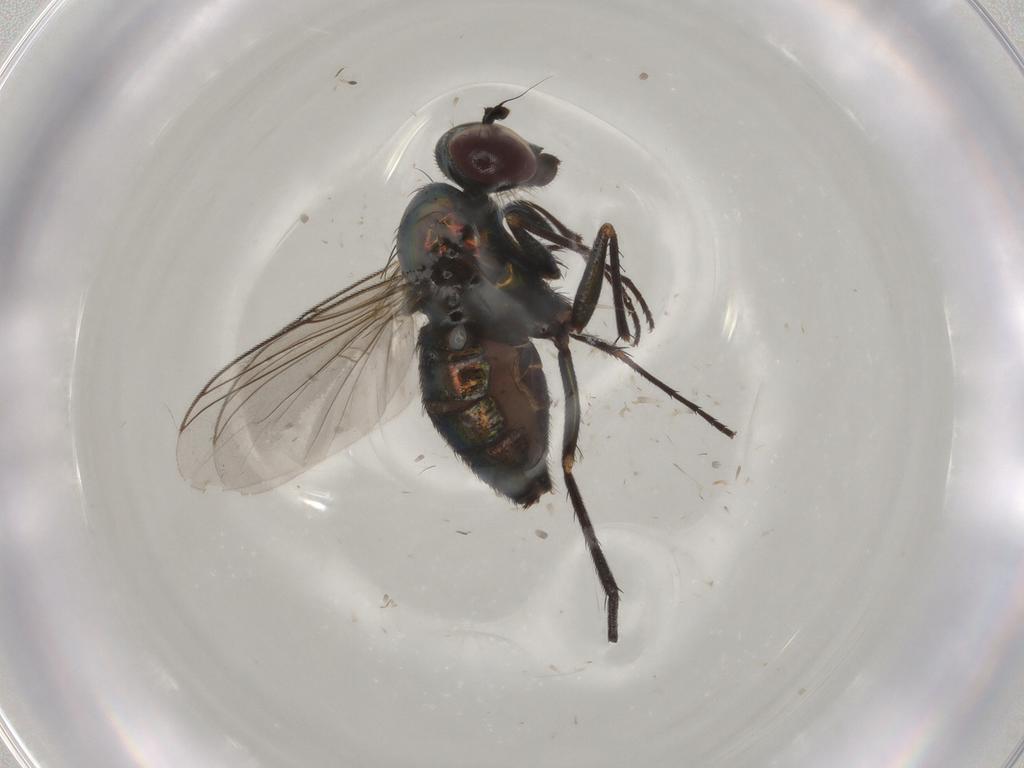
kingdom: Animalia
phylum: Arthropoda
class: Insecta
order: Diptera
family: Dolichopodidae
